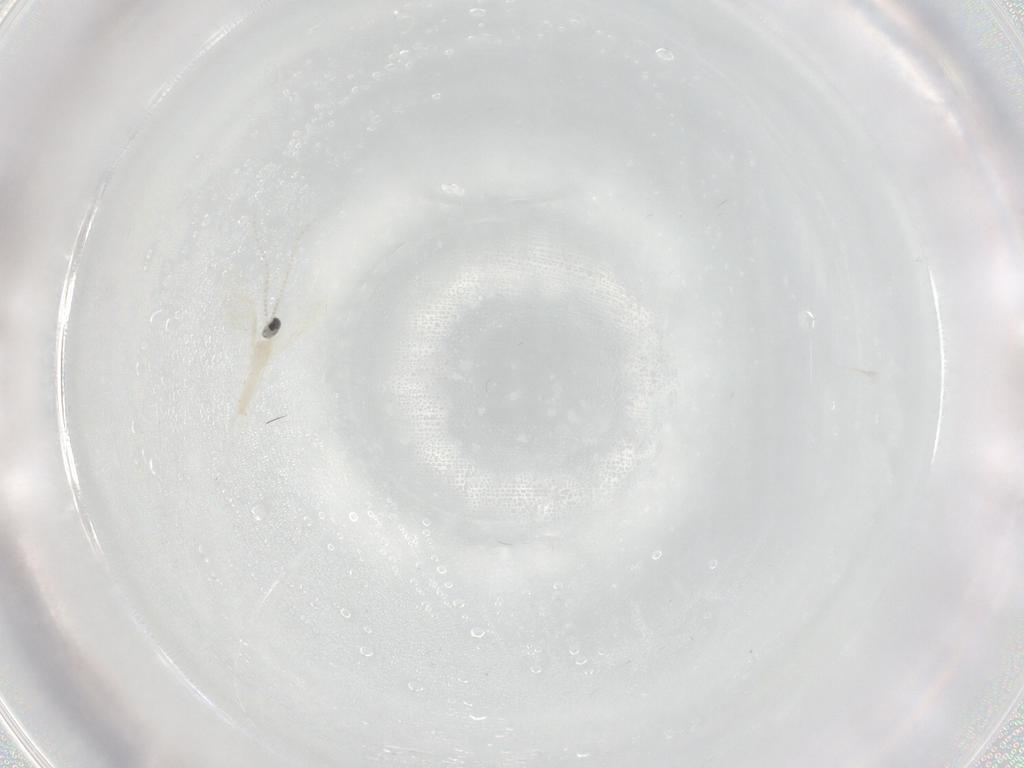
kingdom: Animalia
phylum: Arthropoda
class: Insecta
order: Diptera
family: Cecidomyiidae
